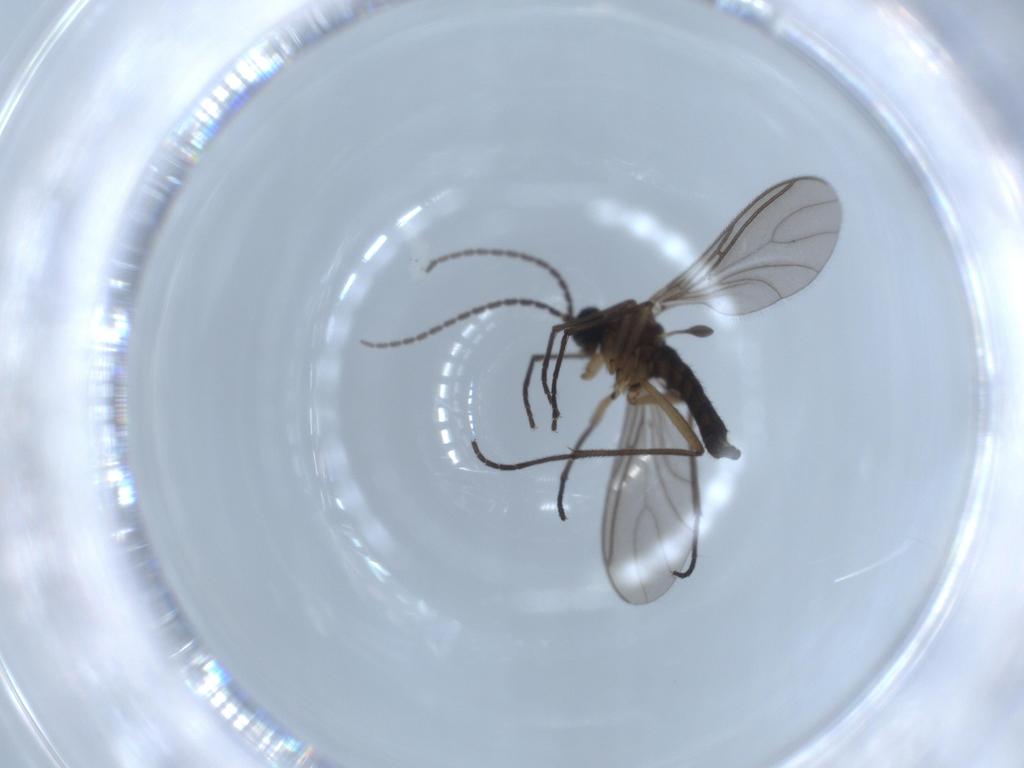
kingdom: Animalia
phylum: Arthropoda
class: Insecta
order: Diptera
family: Sciaridae
